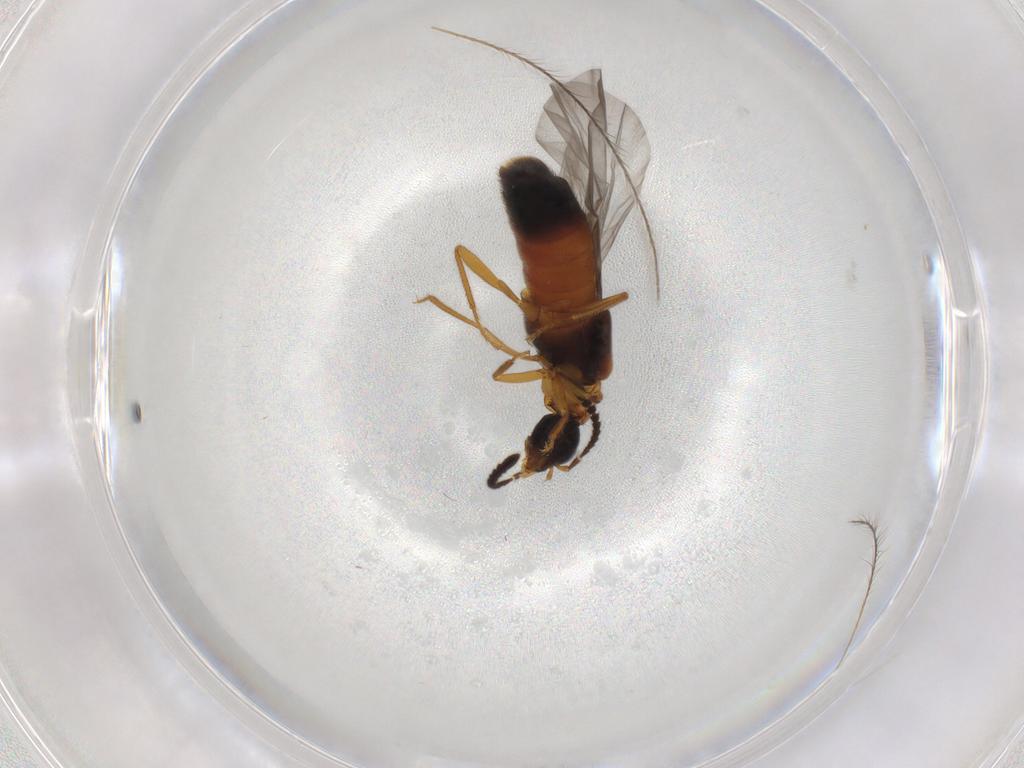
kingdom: Animalia
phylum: Arthropoda
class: Insecta
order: Coleoptera
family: Staphylinidae
